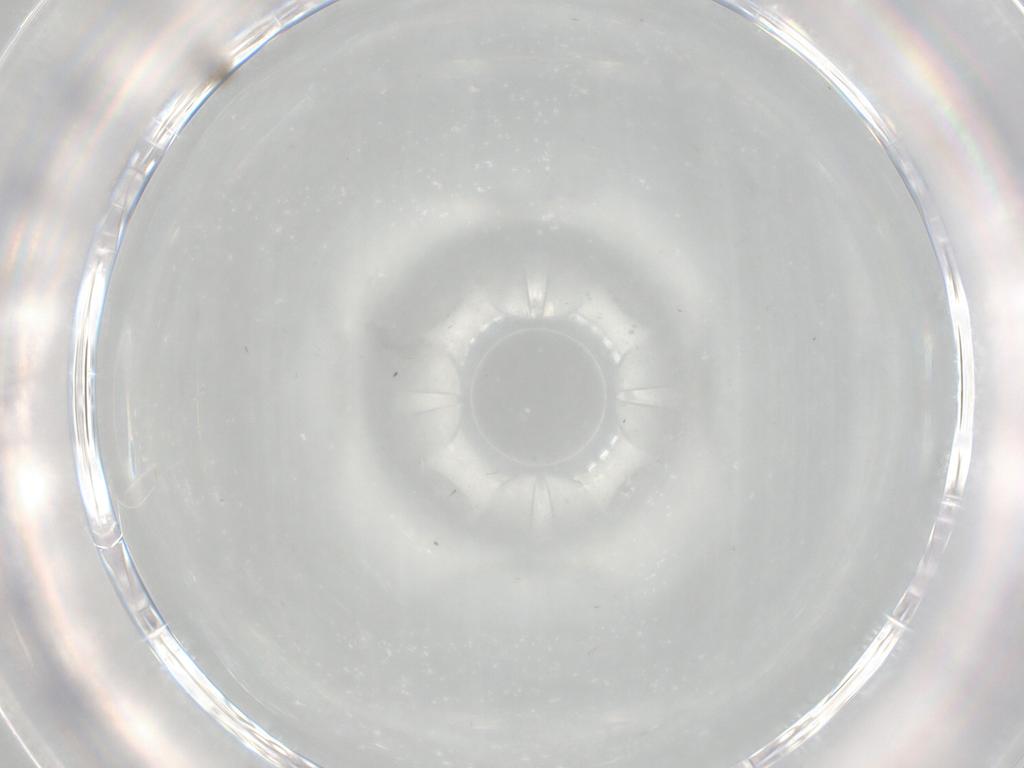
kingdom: Animalia
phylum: Arthropoda
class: Insecta
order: Psocodea
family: Lepidopsocidae
